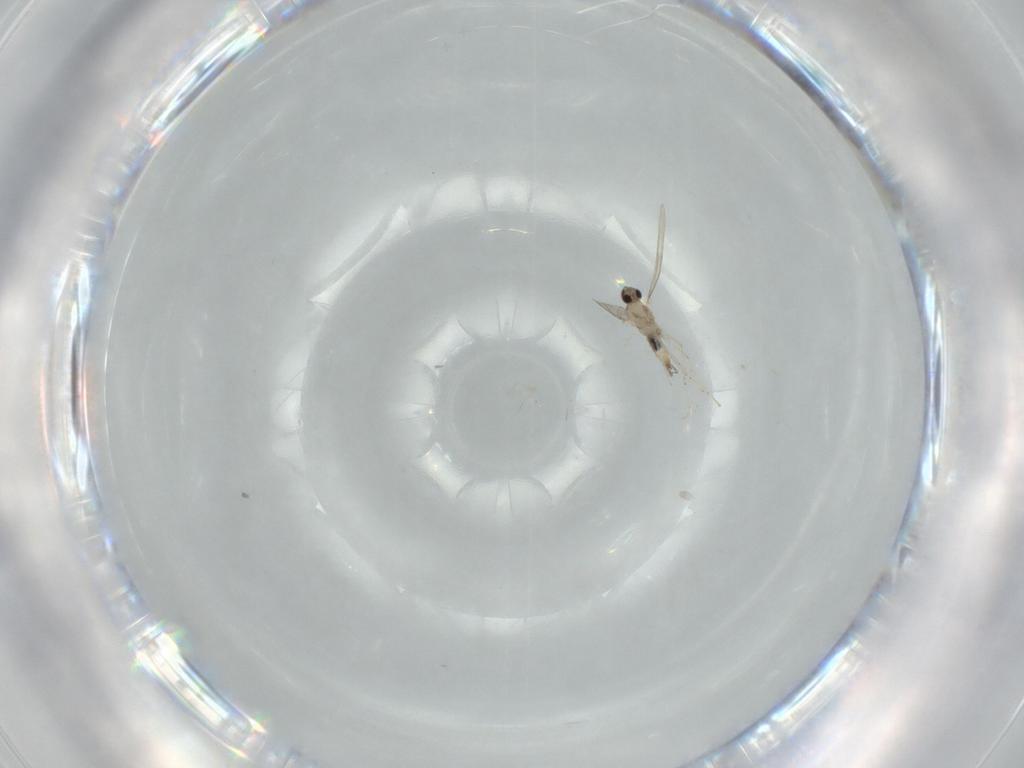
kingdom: Animalia
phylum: Arthropoda
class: Insecta
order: Diptera
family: Cecidomyiidae
